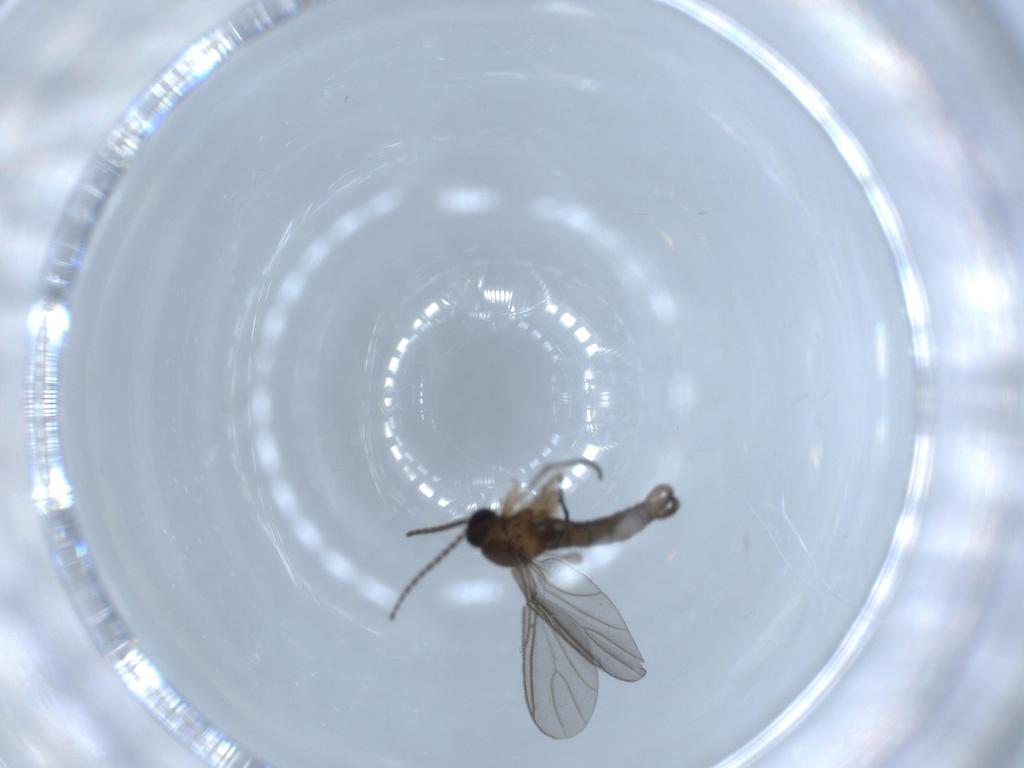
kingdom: Animalia
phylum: Arthropoda
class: Insecta
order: Diptera
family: Sciaridae
